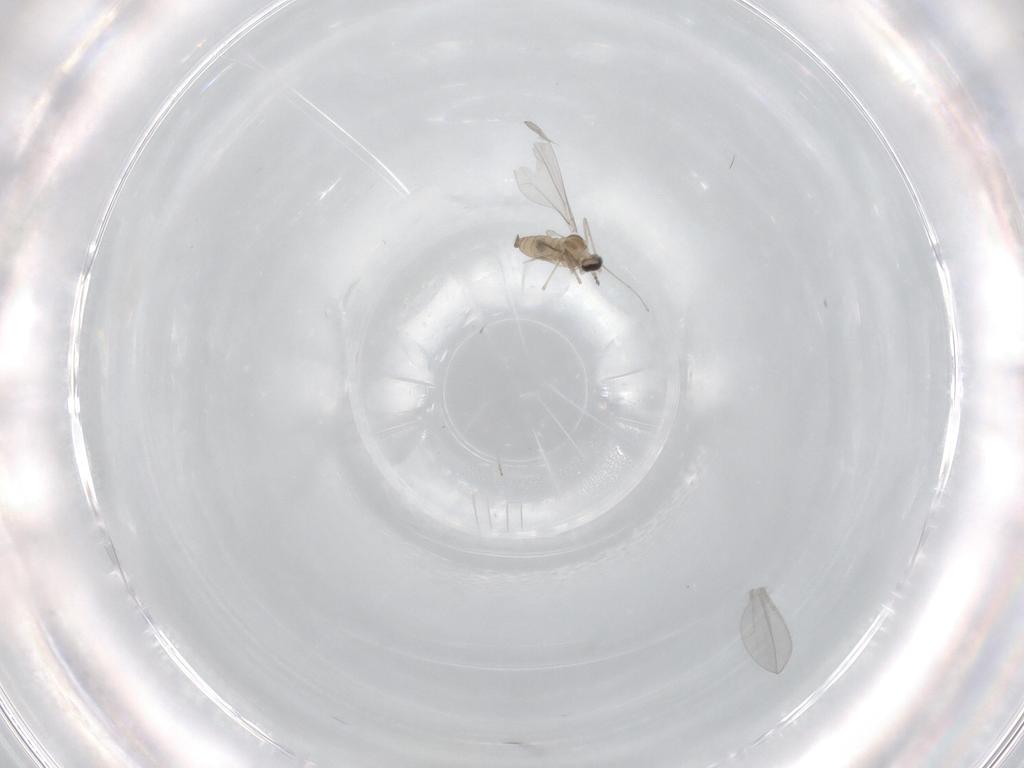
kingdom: Animalia
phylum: Arthropoda
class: Insecta
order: Diptera
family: Cecidomyiidae
